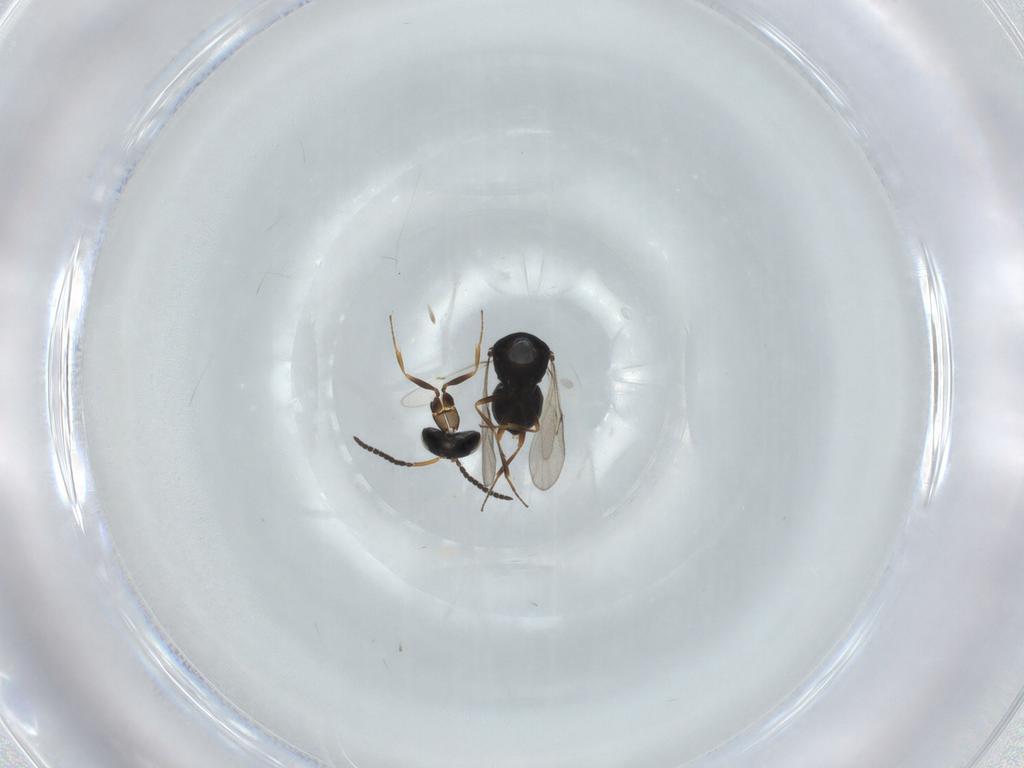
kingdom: Animalia
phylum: Arthropoda
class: Insecta
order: Hymenoptera
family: Scelionidae
